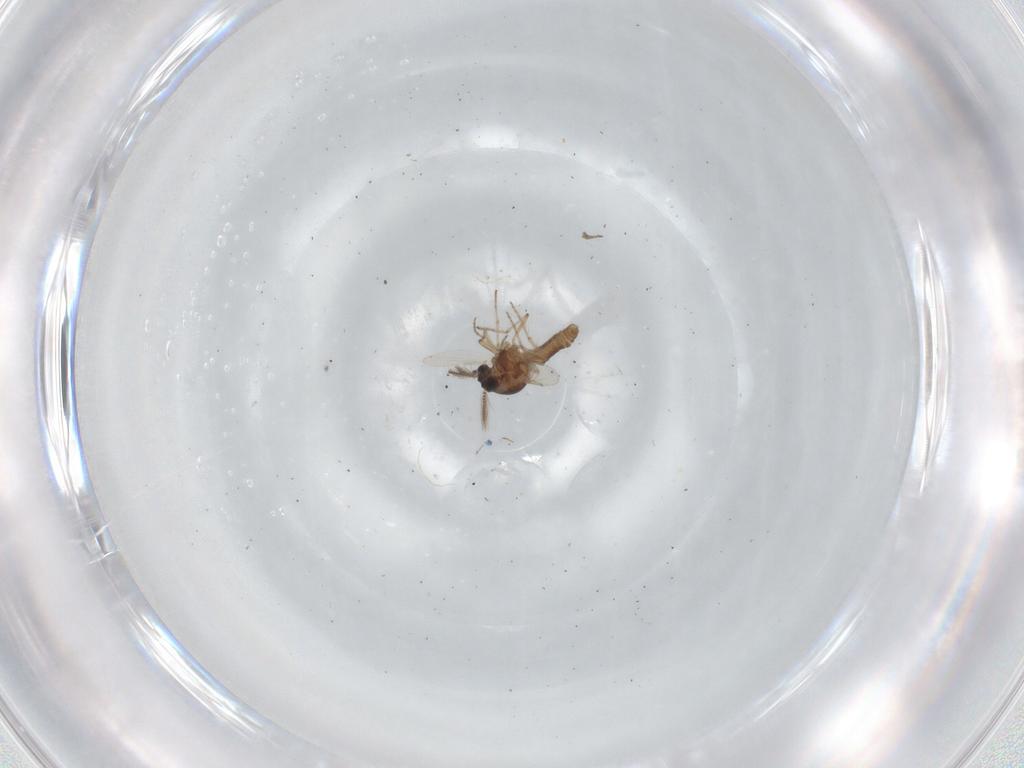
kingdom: Animalia
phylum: Arthropoda
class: Insecta
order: Diptera
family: Ceratopogonidae
